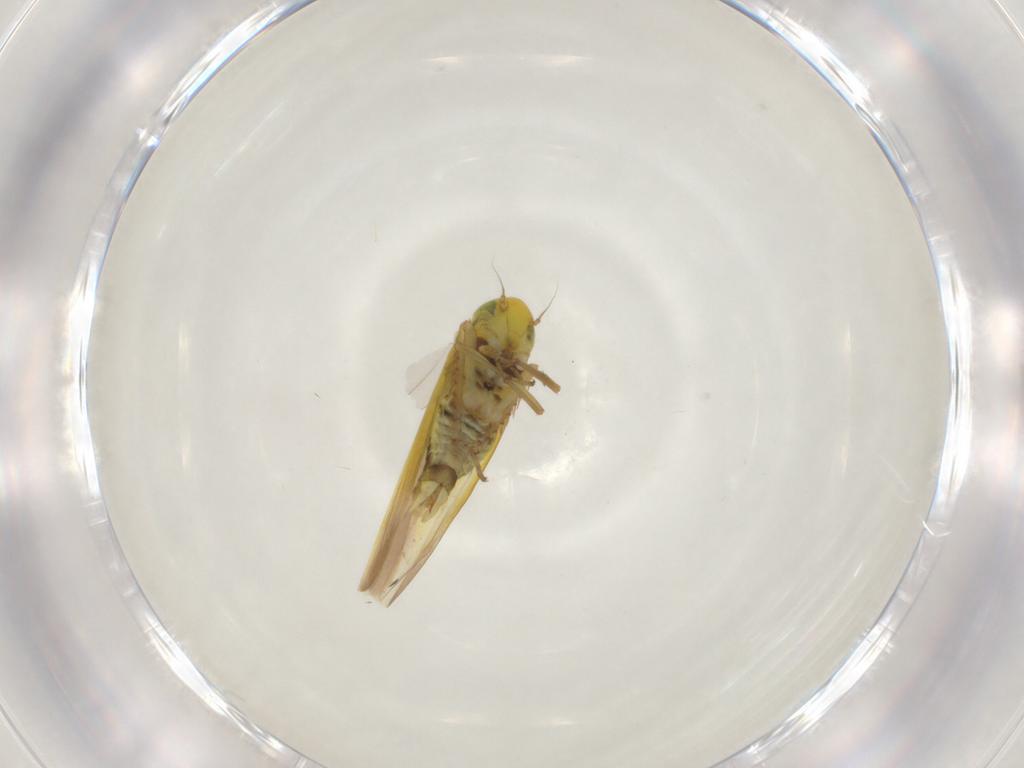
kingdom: Animalia
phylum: Arthropoda
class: Insecta
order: Hemiptera
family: Cicadellidae
